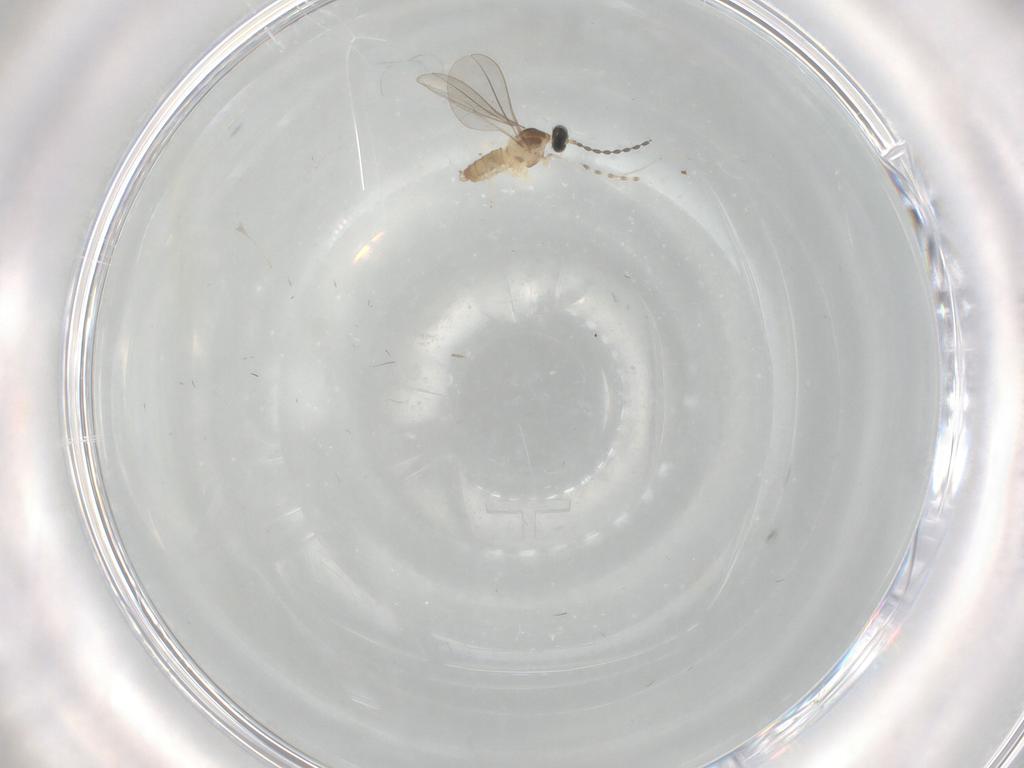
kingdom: Animalia
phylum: Arthropoda
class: Insecta
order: Diptera
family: Cecidomyiidae
